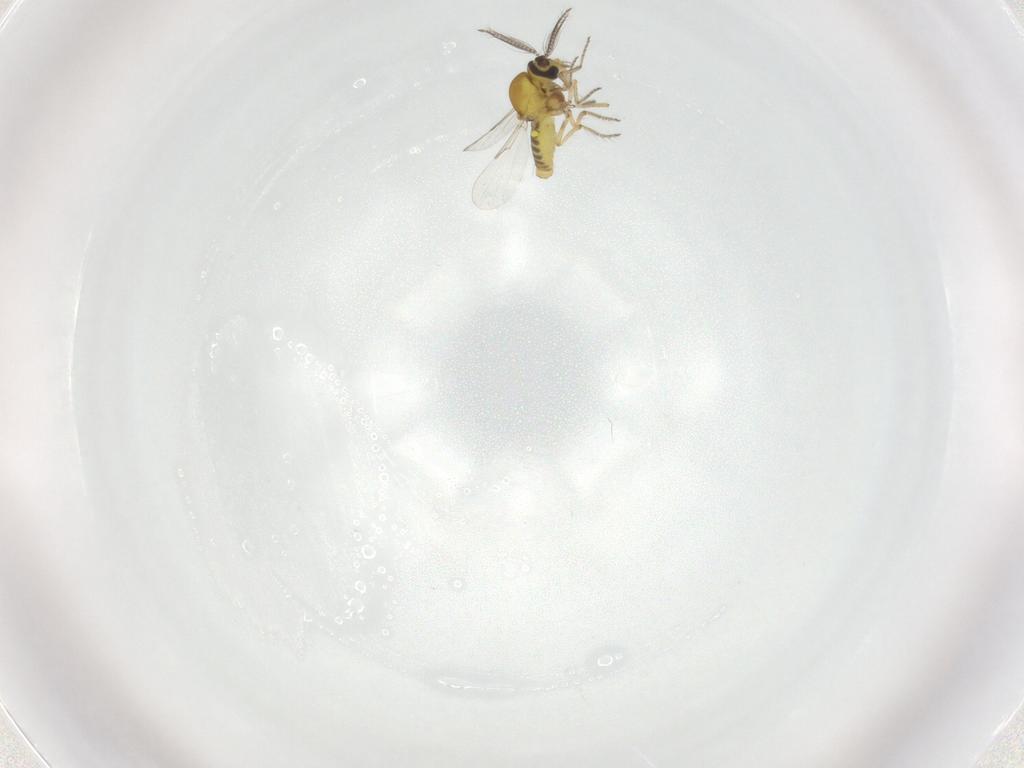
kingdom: Animalia
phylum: Arthropoda
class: Insecta
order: Diptera
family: Ceratopogonidae
